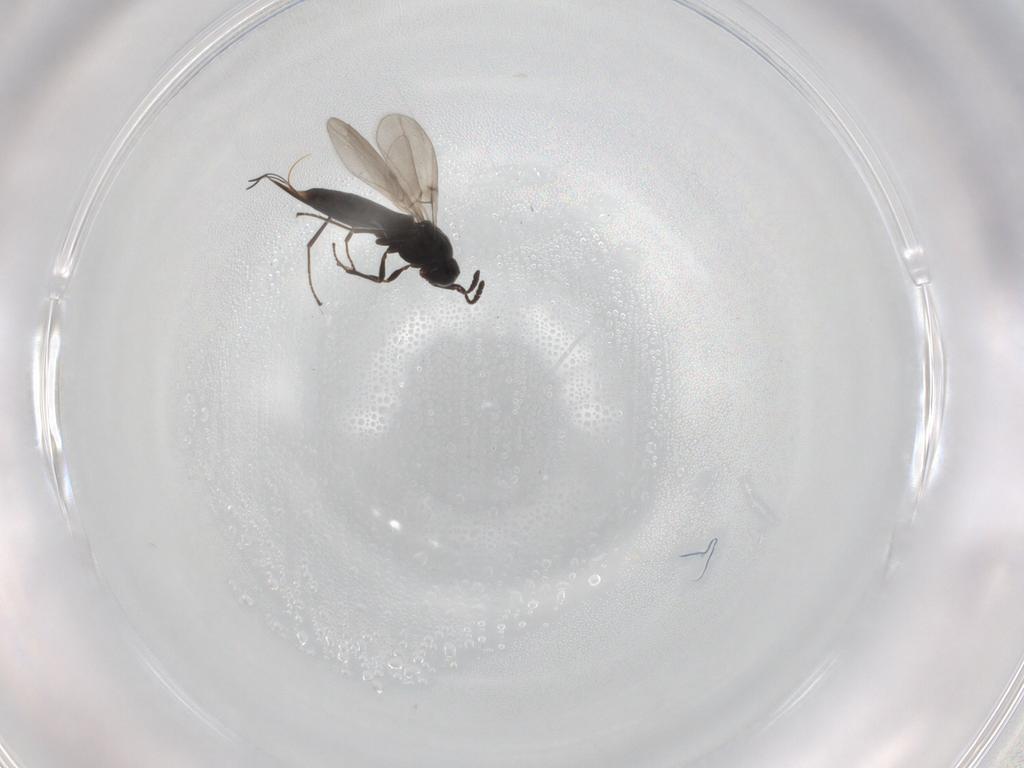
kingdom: Animalia
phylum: Arthropoda
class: Insecta
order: Hymenoptera
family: Platygastridae
